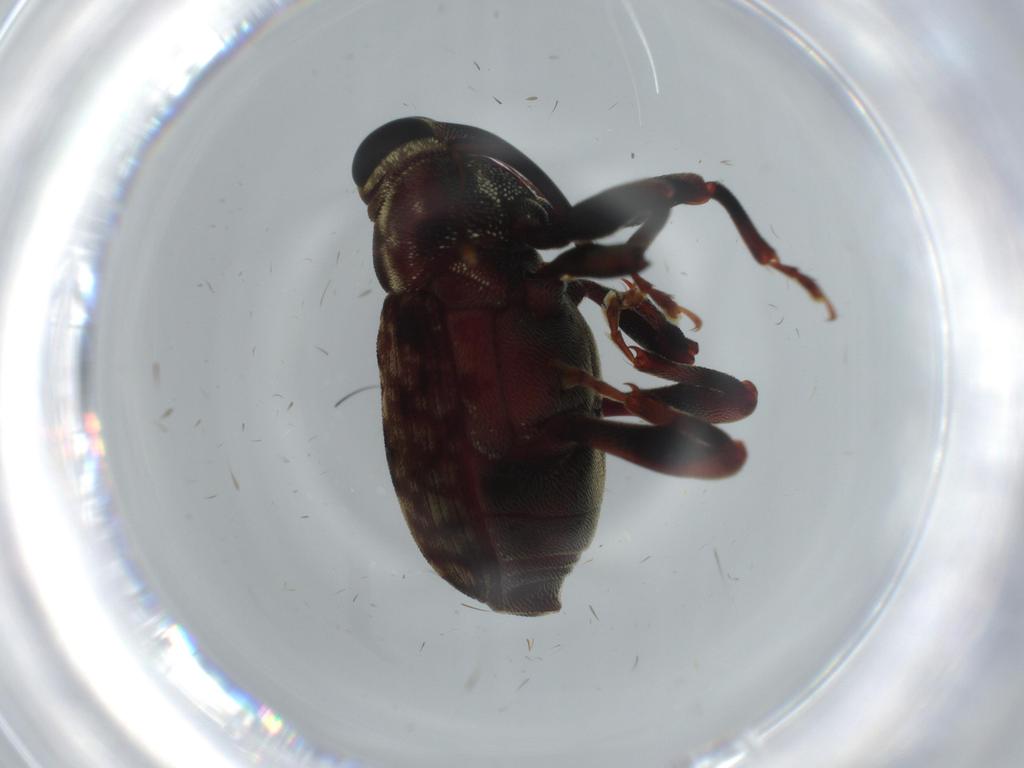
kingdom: Animalia
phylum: Arthropoda
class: Insecta
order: Coleoptera
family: Curculionidae
